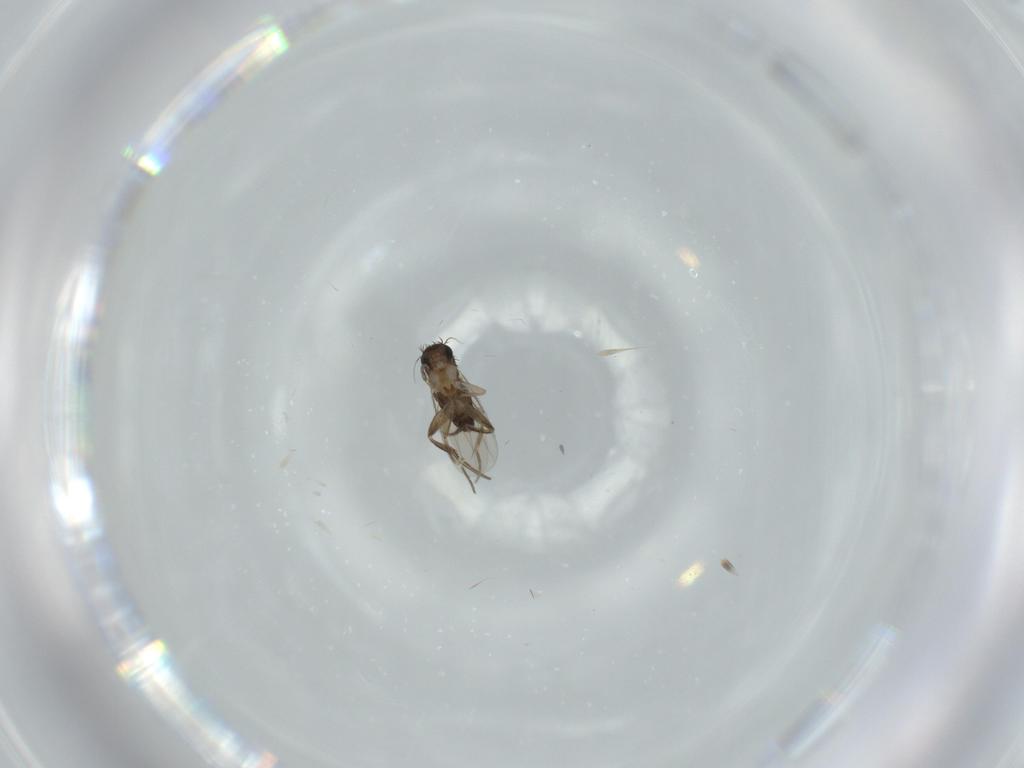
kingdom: Animalia
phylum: Arthropoda
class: Insecta
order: Diptera
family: Phoridae
